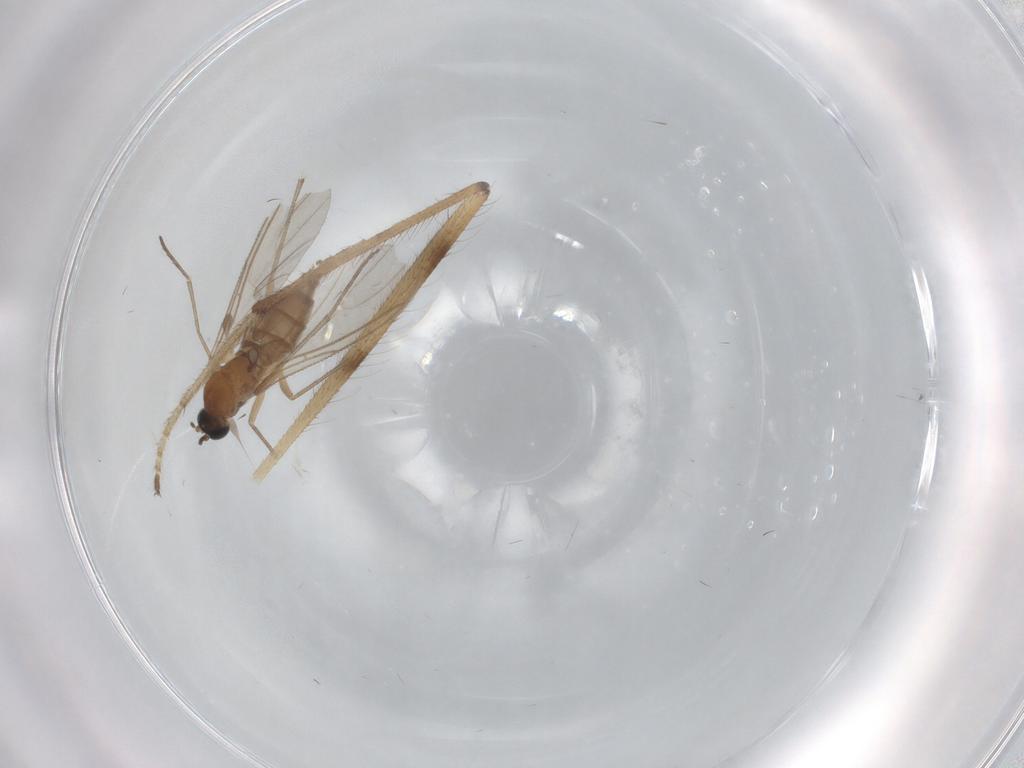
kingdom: Animalia
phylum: Arthropoda
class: Insecta
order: Diptera
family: Limoniidae
